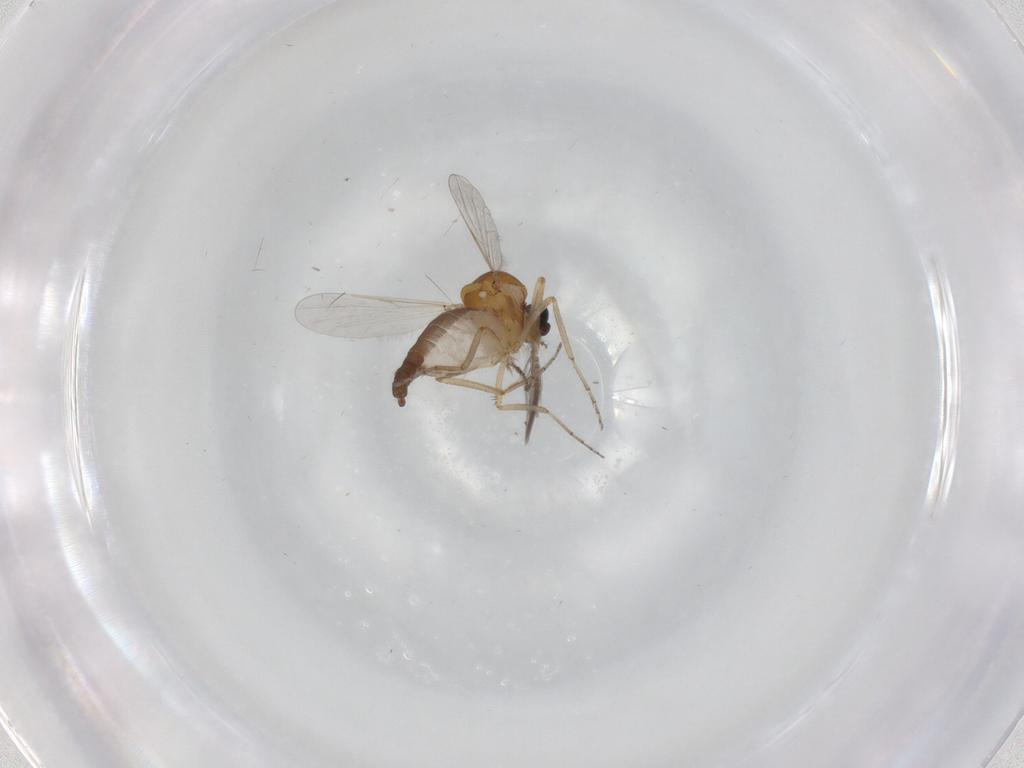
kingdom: Animalia
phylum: Arthropoda
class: Insecta
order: Diptera
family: Ceratopogonidae
